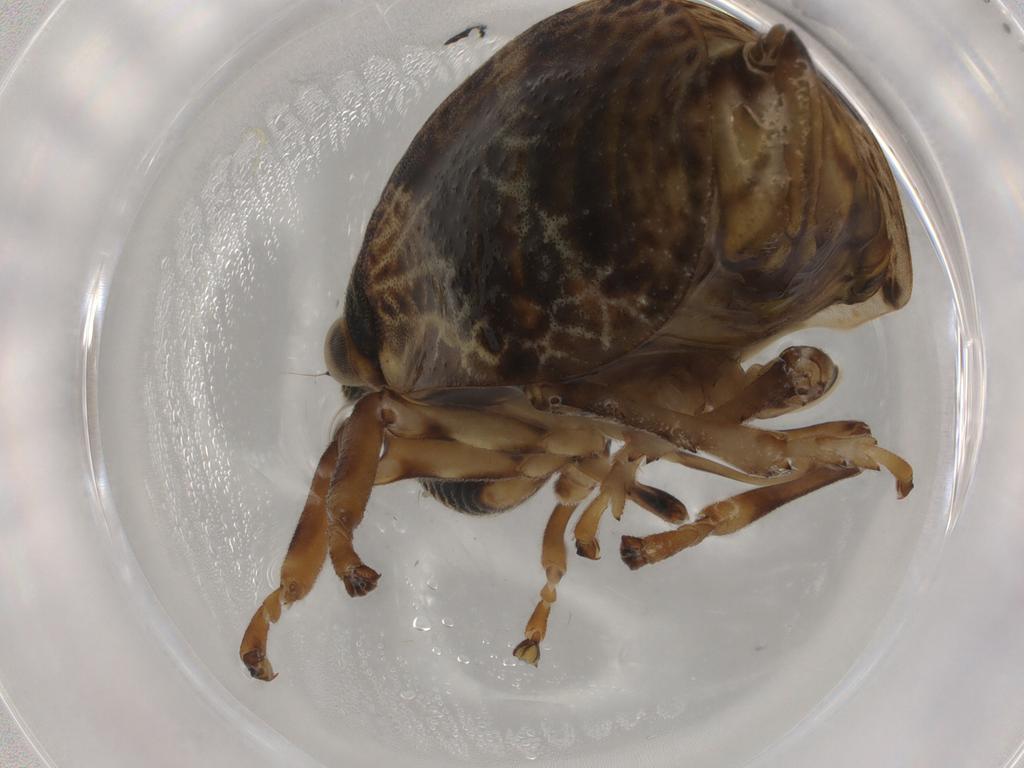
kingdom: Animalia
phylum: Arthropoda
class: Insecta
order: Hemiptera
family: Aphrophoridae
